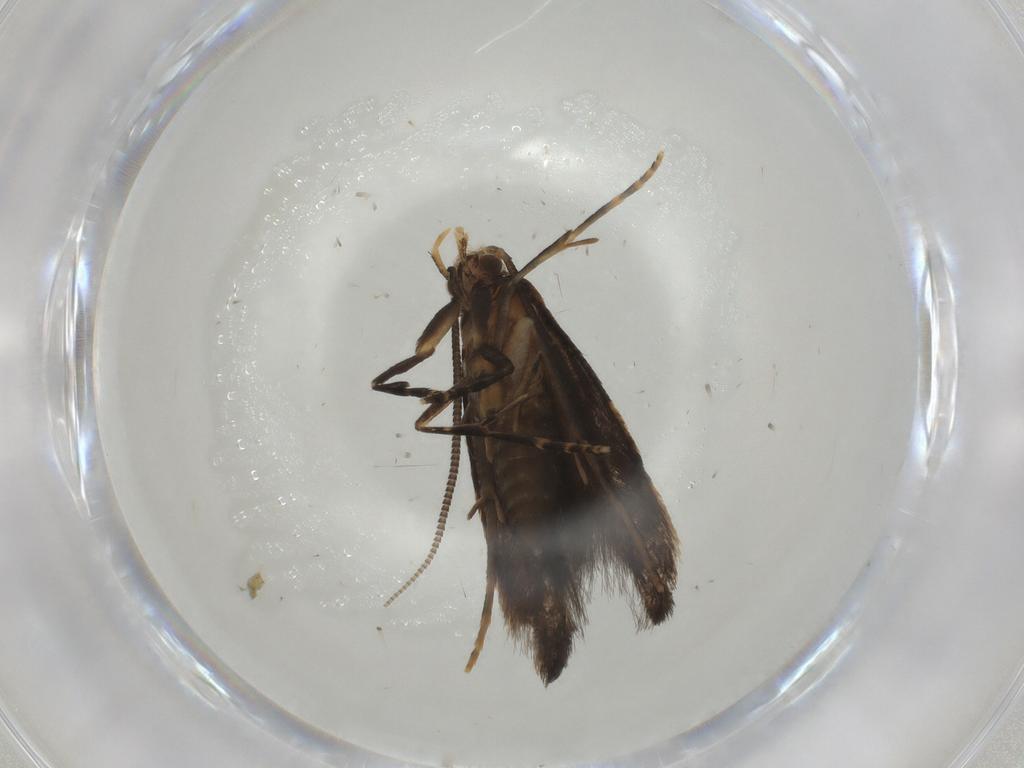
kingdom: Animalia
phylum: Arthropoda
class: Insecta
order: Lepidoptera
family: Tineidae
